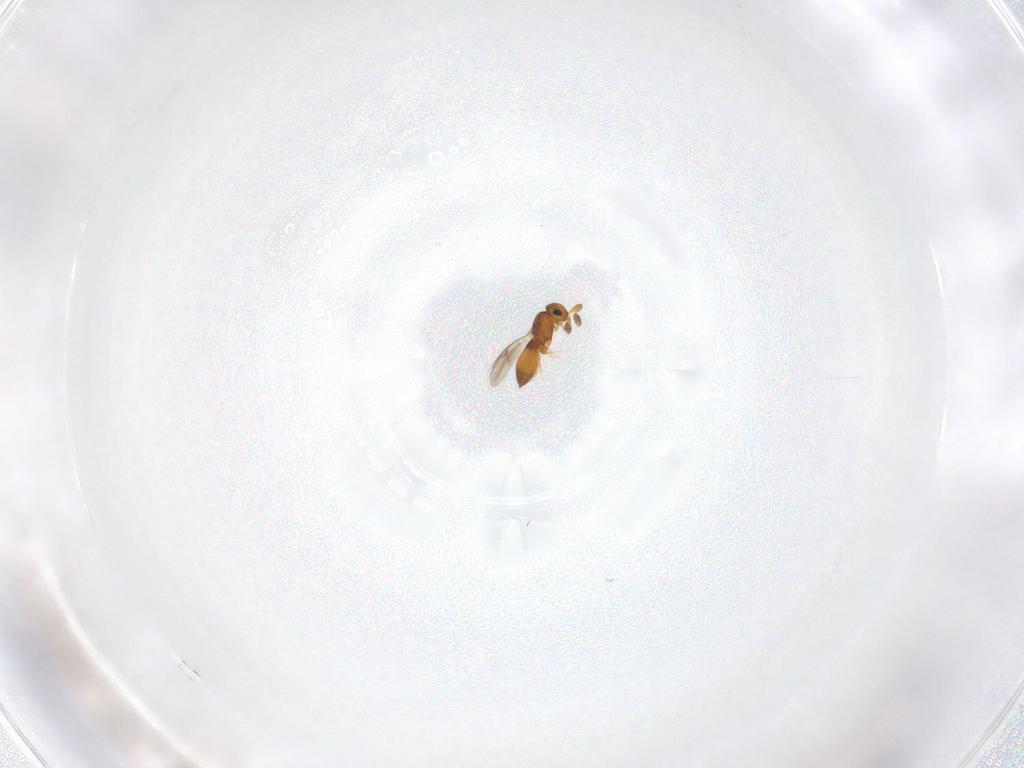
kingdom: Animalia
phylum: Arthropoda
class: Insecta
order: Hymenoptera
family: Platygastridae
